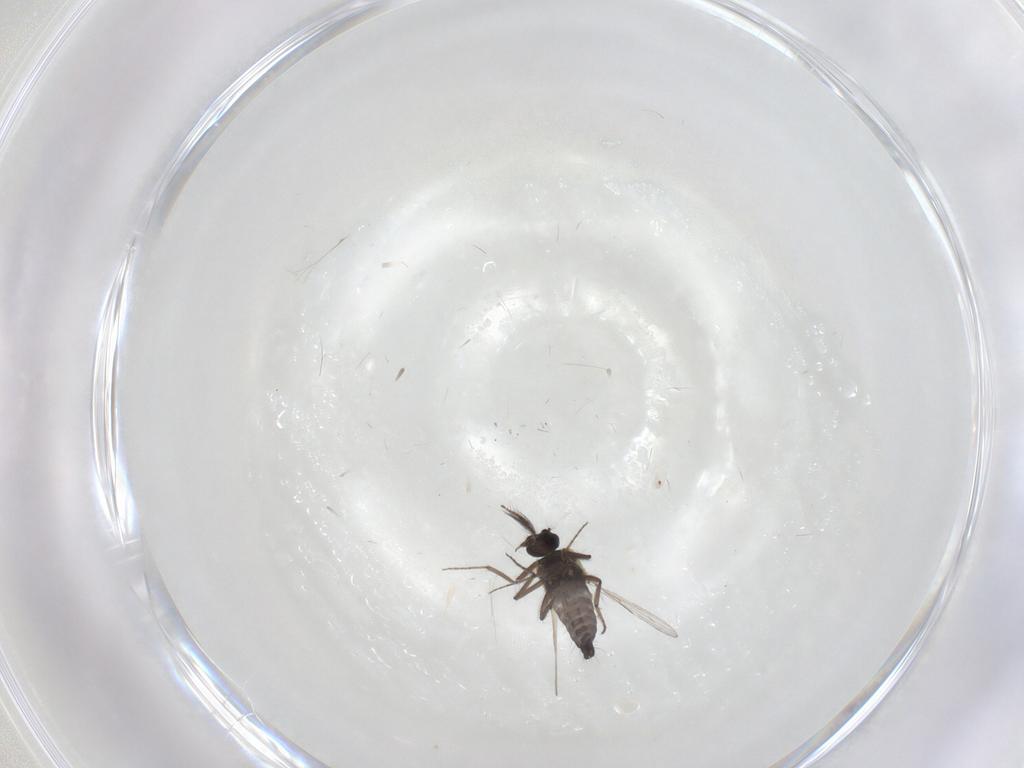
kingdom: Animalia
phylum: Arthropoda
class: Insecta
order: Diptera
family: Ceratopogonidae
